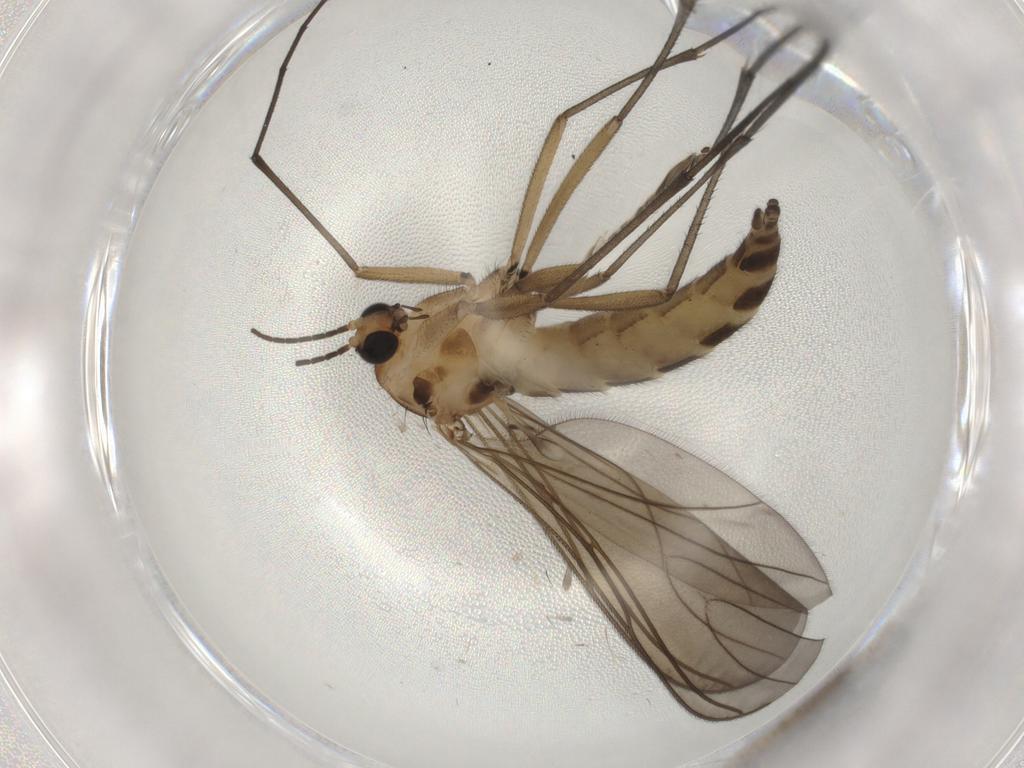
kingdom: Animalia
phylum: Arthropoda
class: Insecta
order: Diptera
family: Sciaridae
